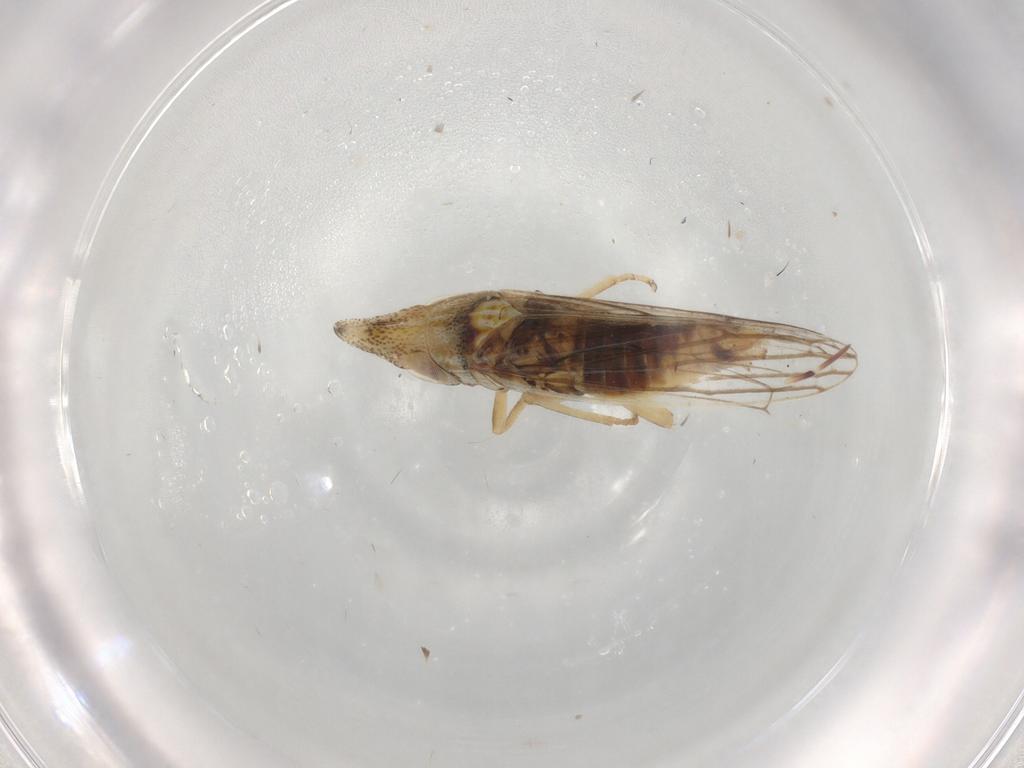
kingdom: Animalia
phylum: Arthropoda
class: Insecta
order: Hemiptera
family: Cicadellidae
